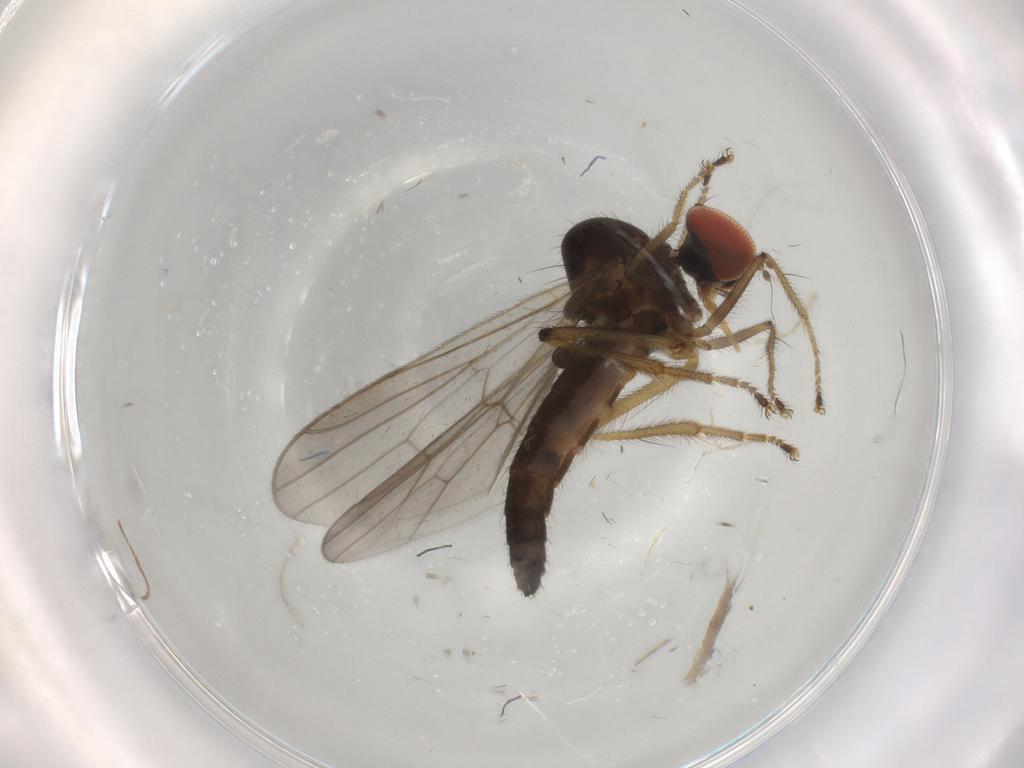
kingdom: Animalia
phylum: Arthropoda
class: Insecta
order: Diptera
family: Hybotidae
